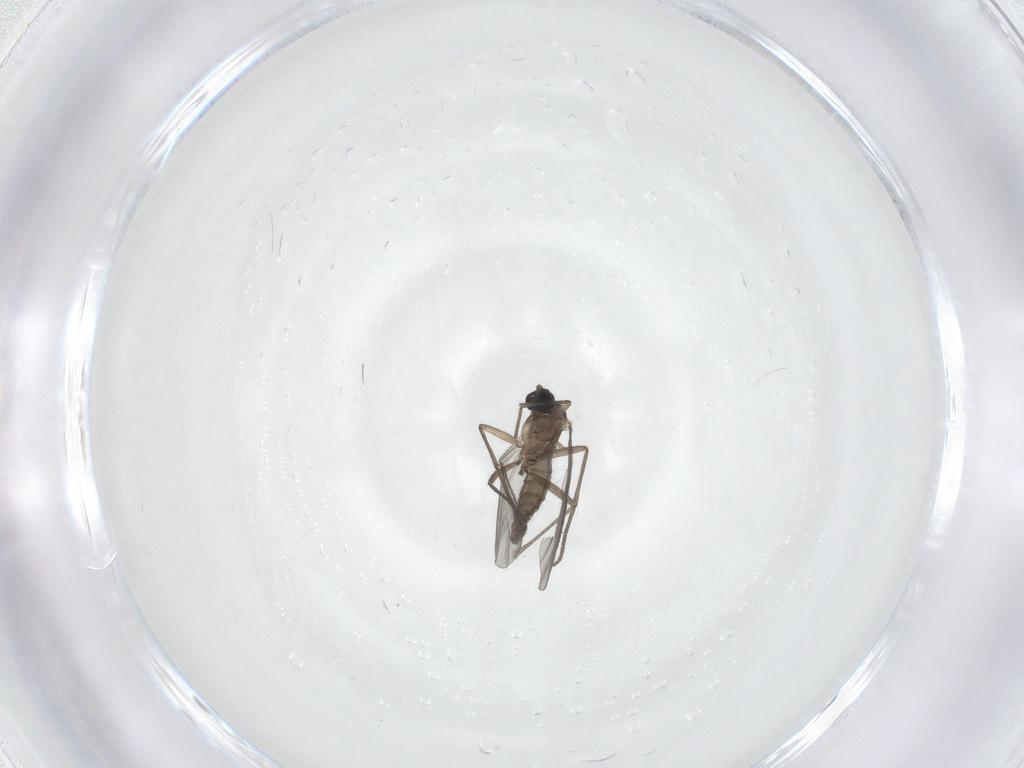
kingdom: Animalia
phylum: Arthropoda
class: Insecta
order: Diptera
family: Sciaridae
